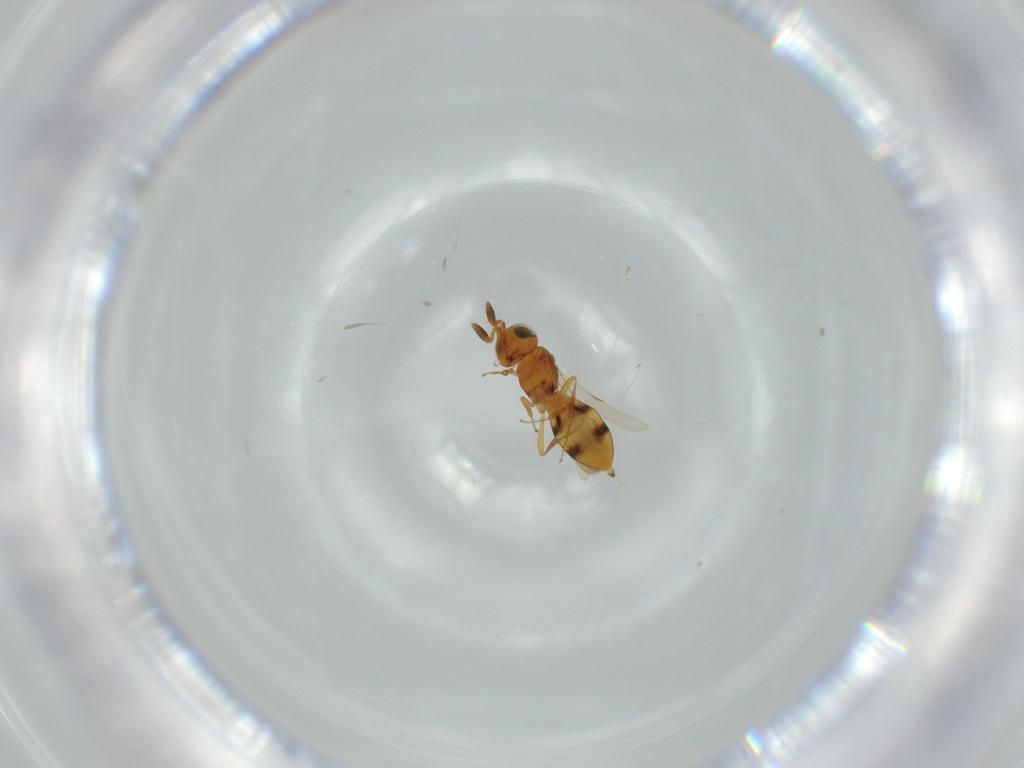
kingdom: Animalia
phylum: Arthropoda
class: Insecta
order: Hymenoptera
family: Scelionidae
